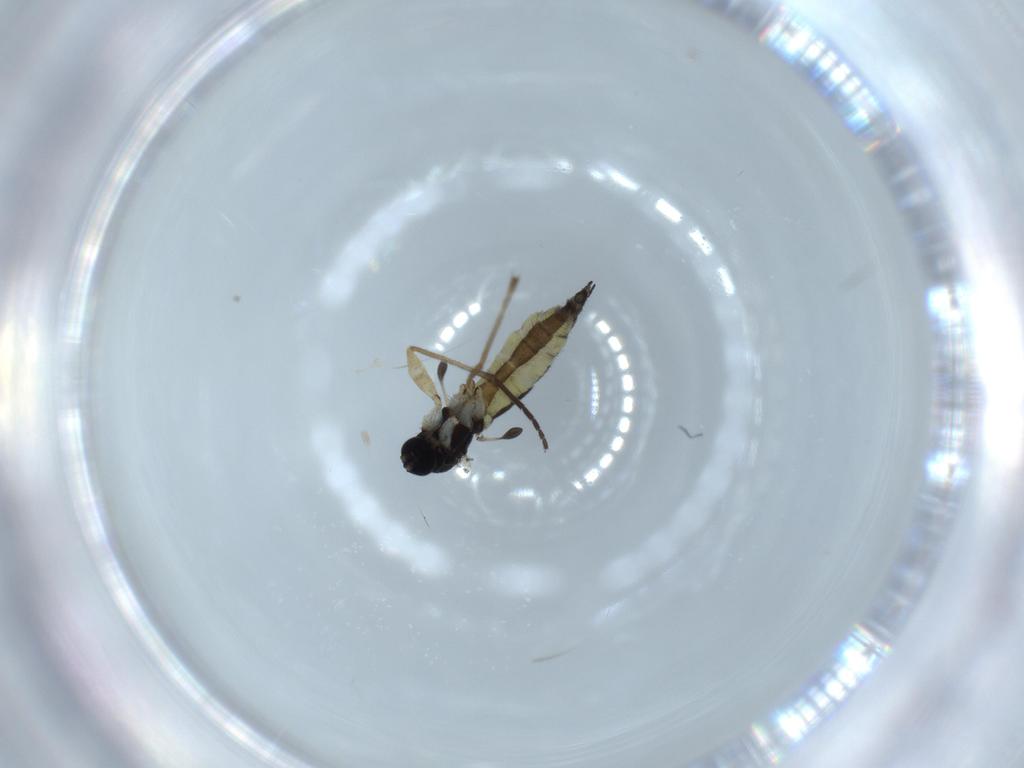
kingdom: Animalia
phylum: Arthropoda
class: Insecta
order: Diptera
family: Sciaridae
